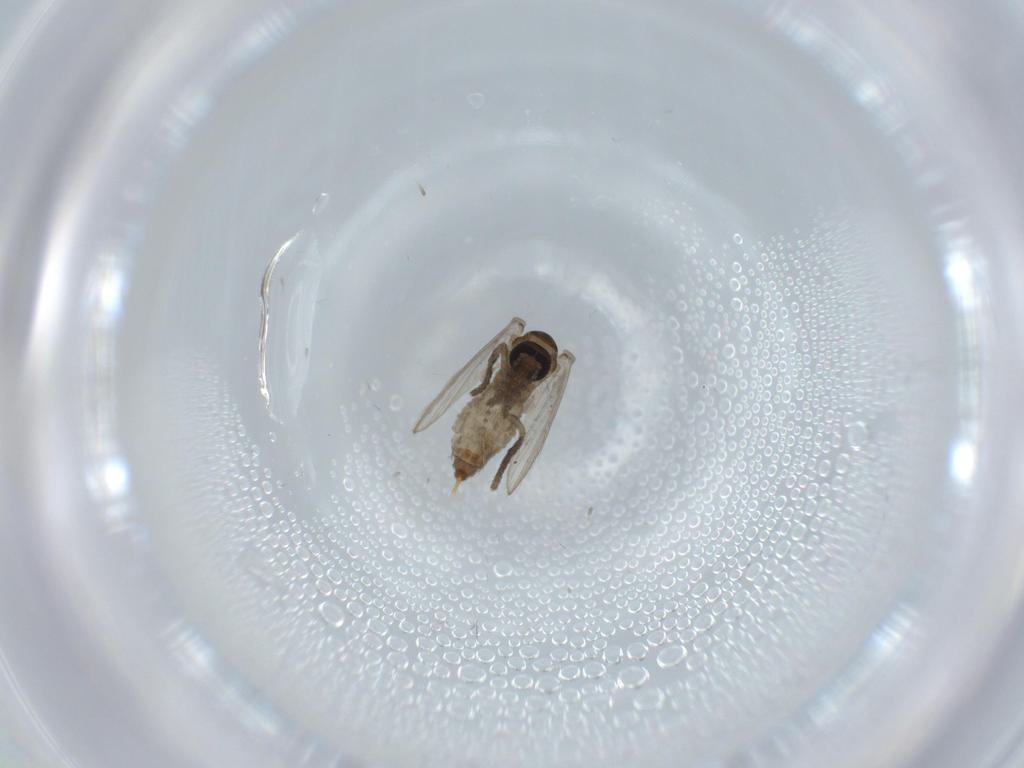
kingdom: Animalia
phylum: Arthropoda
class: Insecta
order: Diptera
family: Psychodidae
